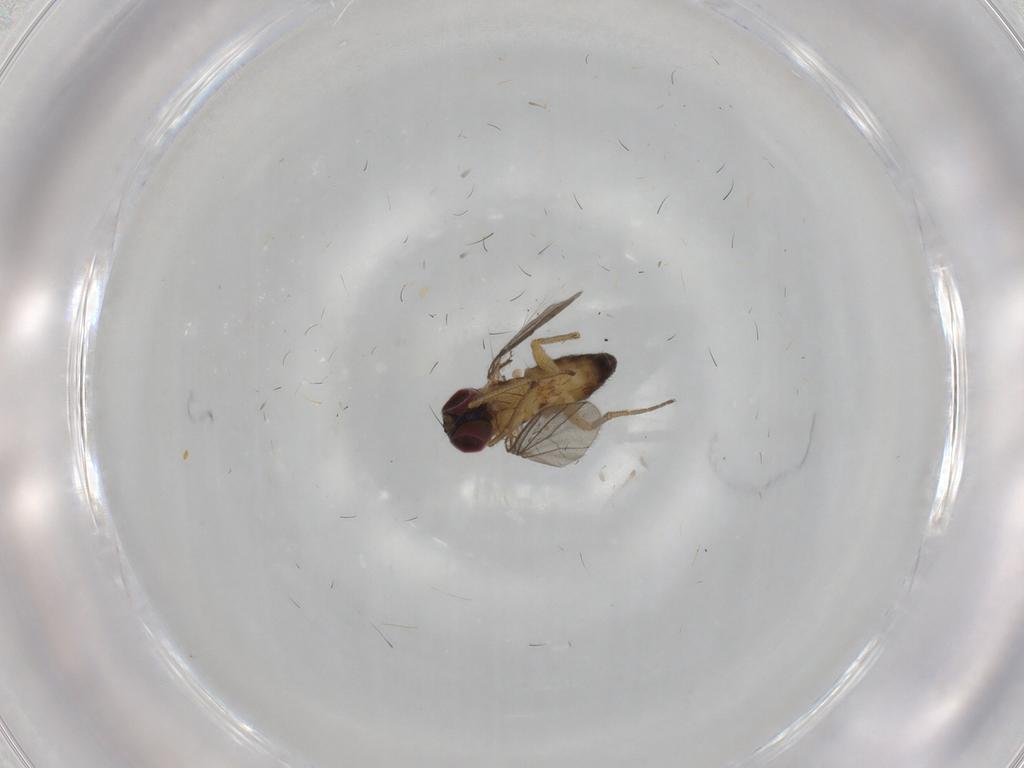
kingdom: Animalia
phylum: Arthropoda
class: Insecta
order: Diptera
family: Dolichopodidae
